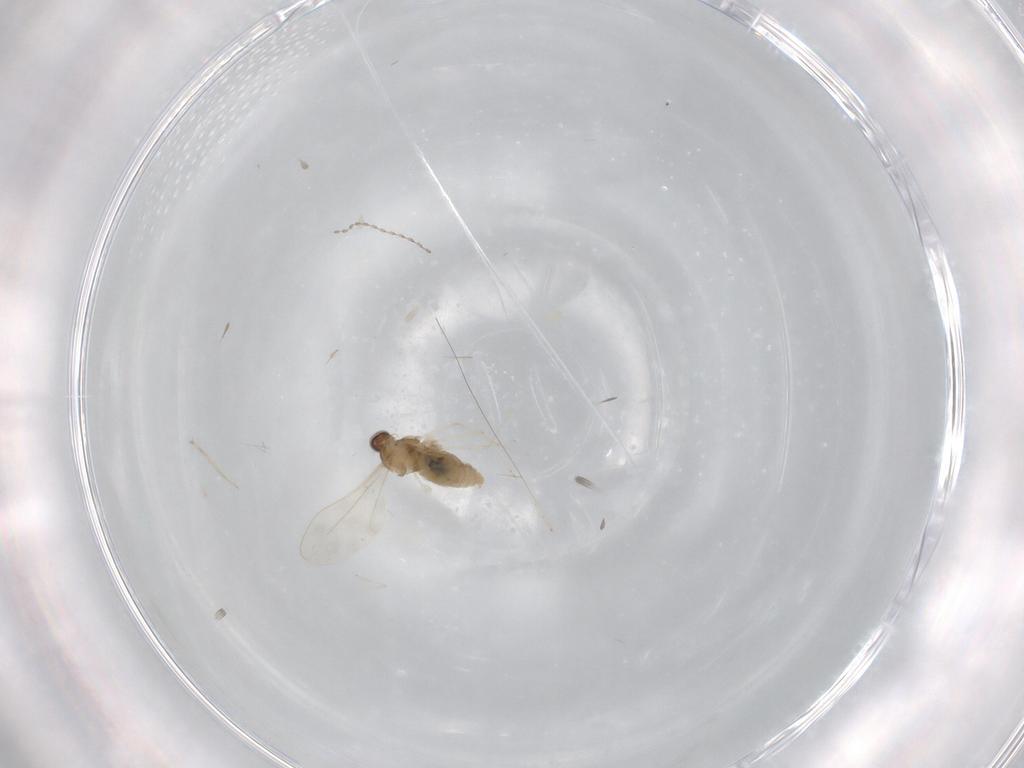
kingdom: Animalia
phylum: Arthropoda
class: Insecta
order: Diptera
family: Cecidomyiidae
